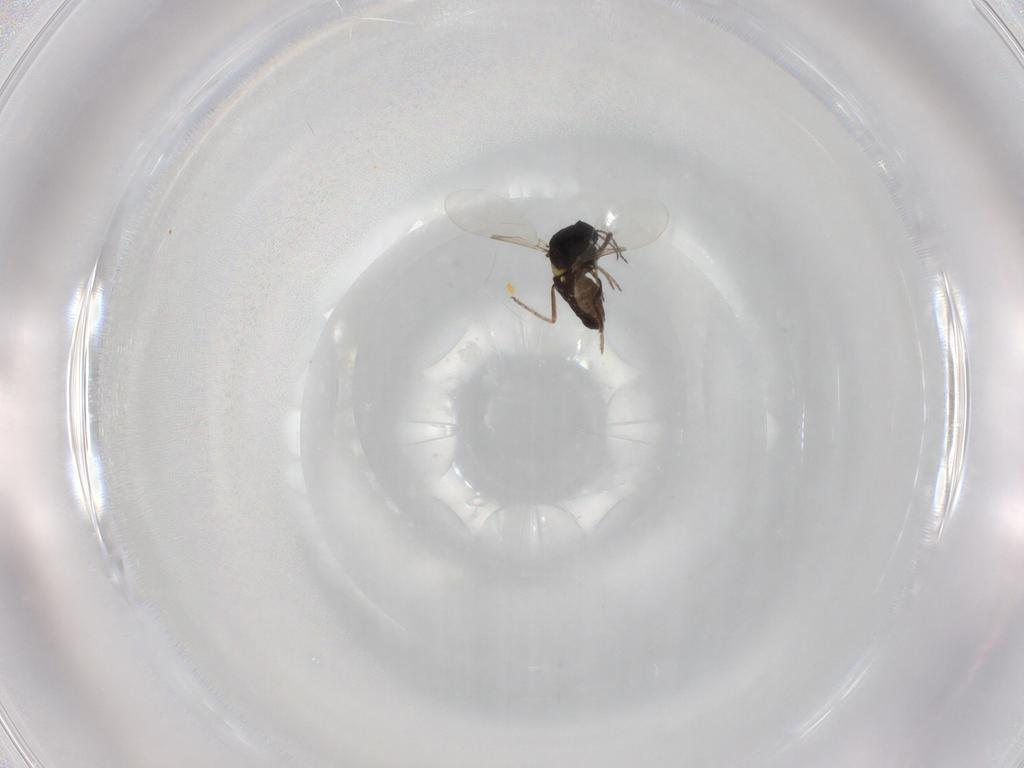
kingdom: Animalia
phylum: Arthropoda
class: Insecta
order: Diptera
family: Ceratopogonidae
